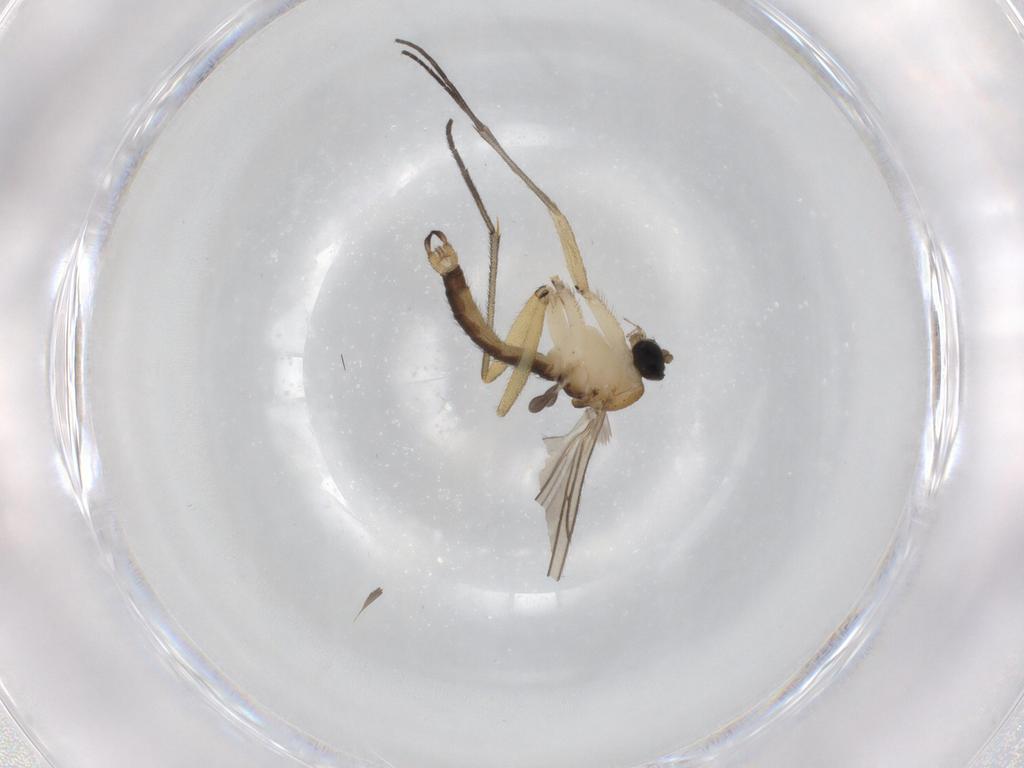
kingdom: Animalia
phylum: Arthropoda
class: Insecta
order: Diptera
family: Sciaridae
